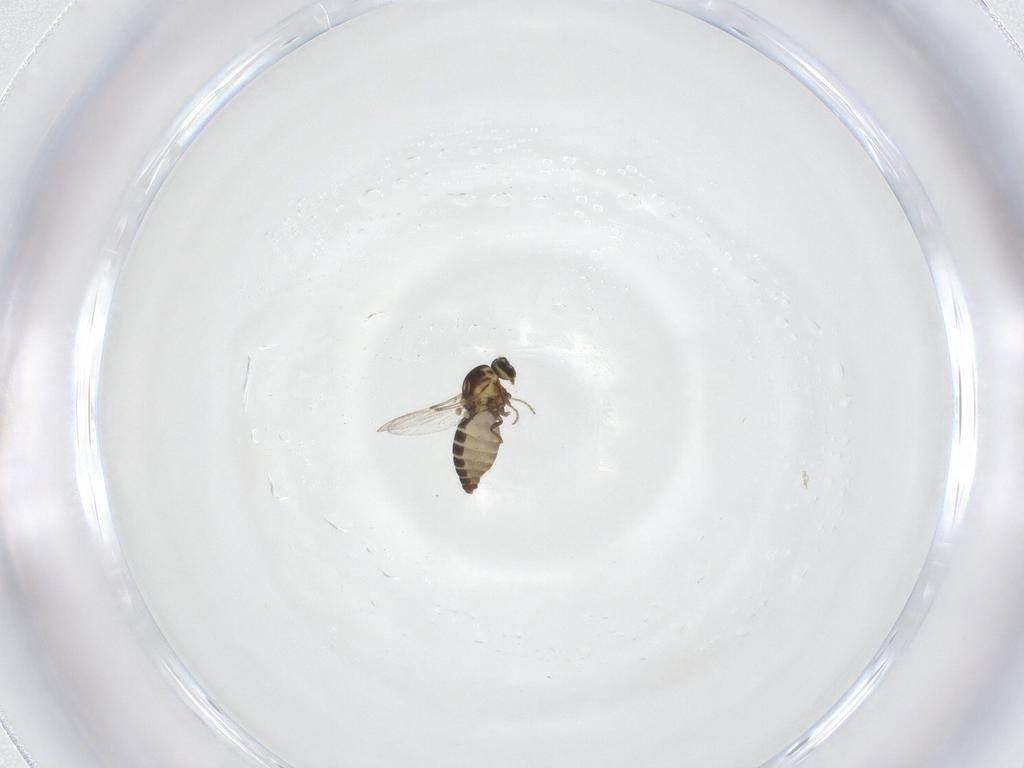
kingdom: Animalia
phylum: Arthropoda
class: Insecta
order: Diptera
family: Ceratopogonidae
